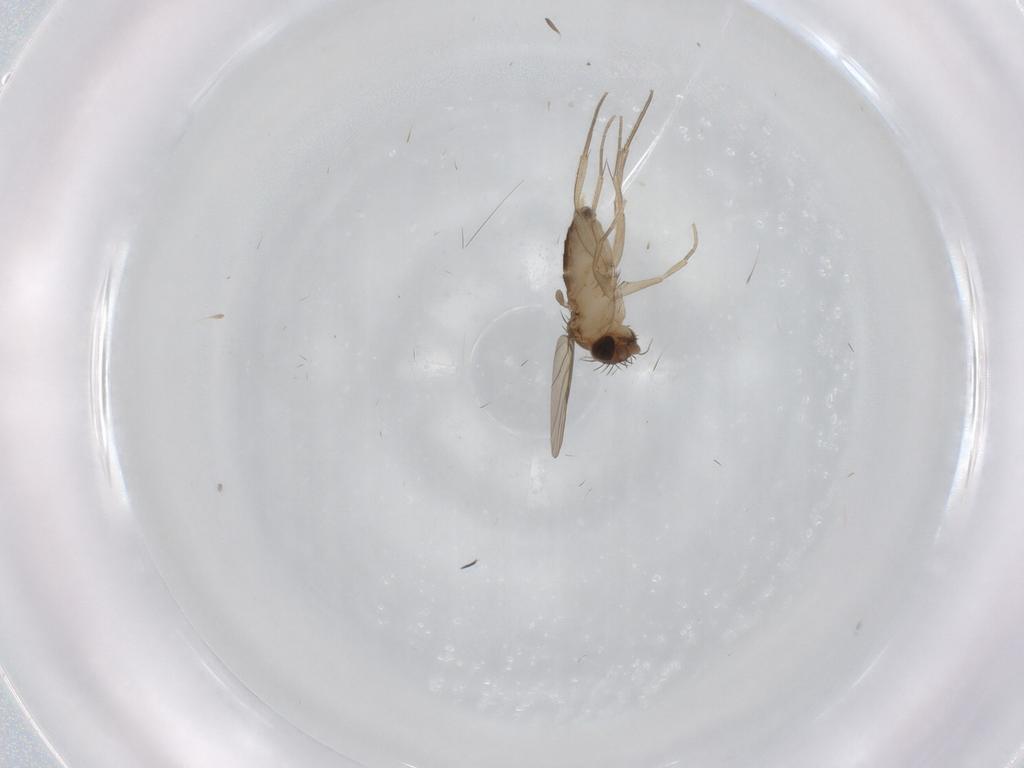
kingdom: Animalia
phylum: Arthropoda
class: Insecta
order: Diptera
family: Phoridae
